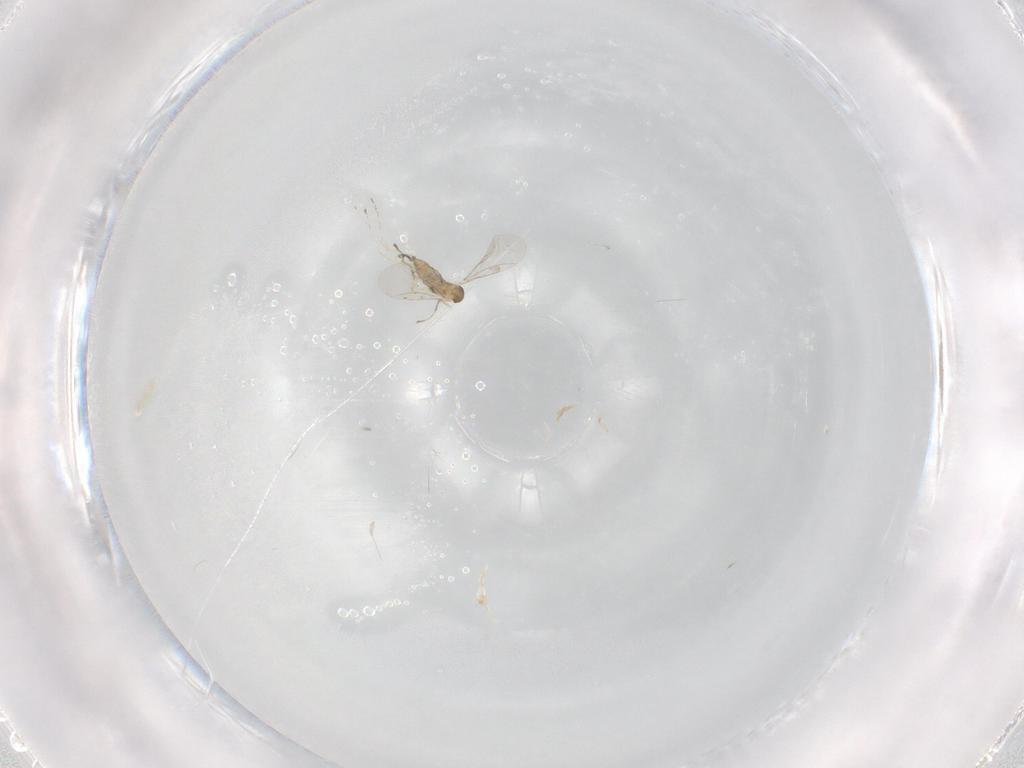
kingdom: Animalia
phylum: Arthropoda
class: Insecta
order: Diptera
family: Cecidomyiidae
